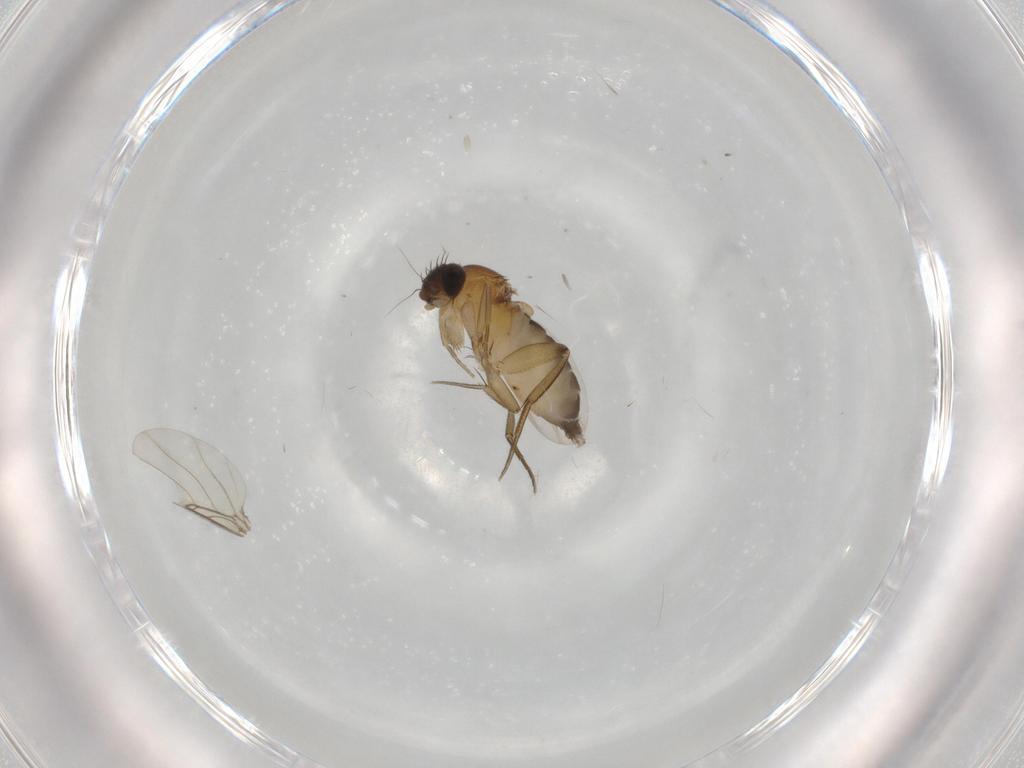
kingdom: Animalia
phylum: Arthropoda
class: Insecta
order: Diptera
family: Phoridae
